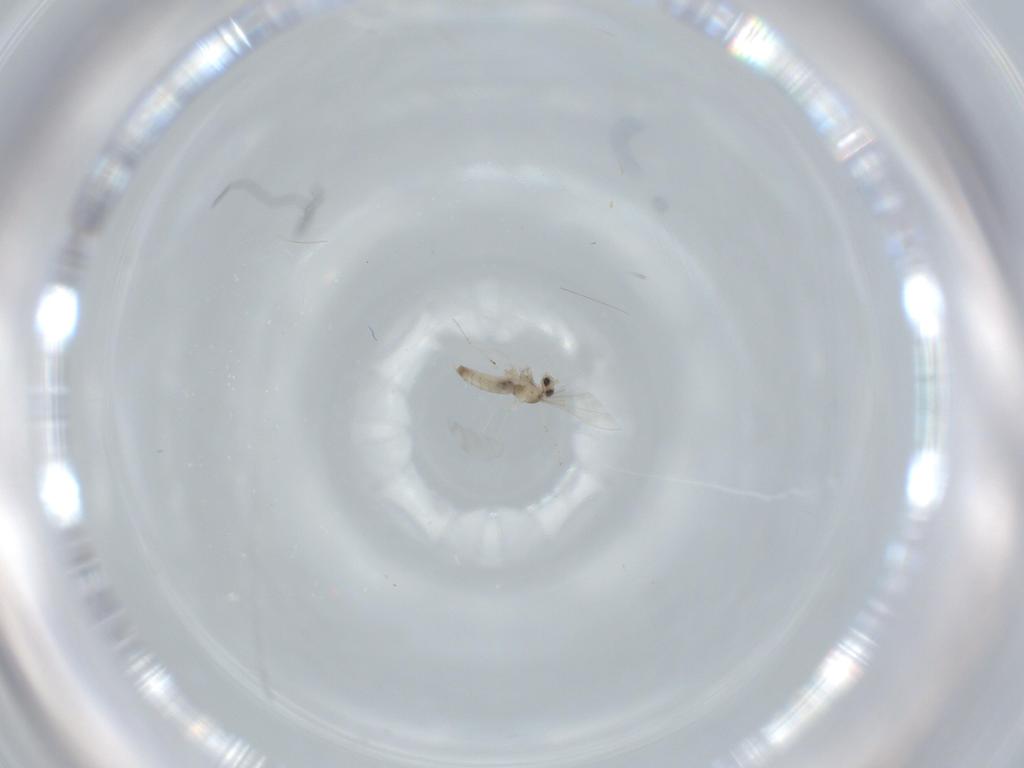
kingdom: Animalia
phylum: Arthropoda
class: Insecta
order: Diptera
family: Cecidomyiidae
